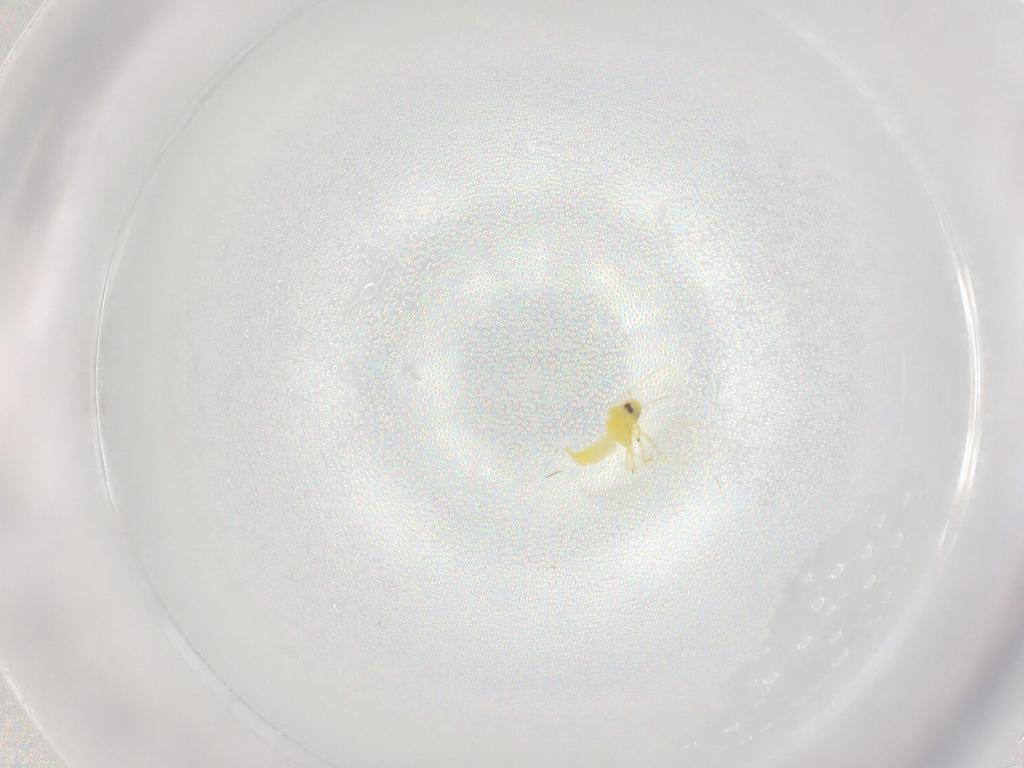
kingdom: Animalia
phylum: Arthropoda
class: Insecta
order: Hemiptera
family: Aleyrodidae
